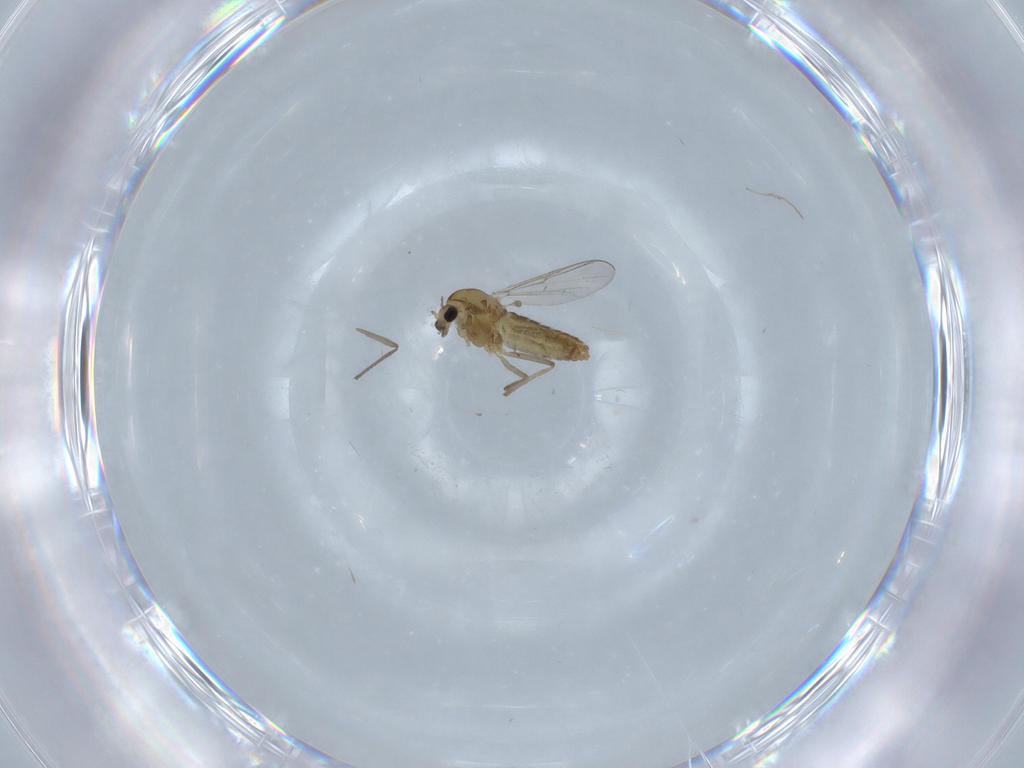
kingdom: Animalia
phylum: Arthropoda
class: Insecta
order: Diptera
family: Chironomidae
